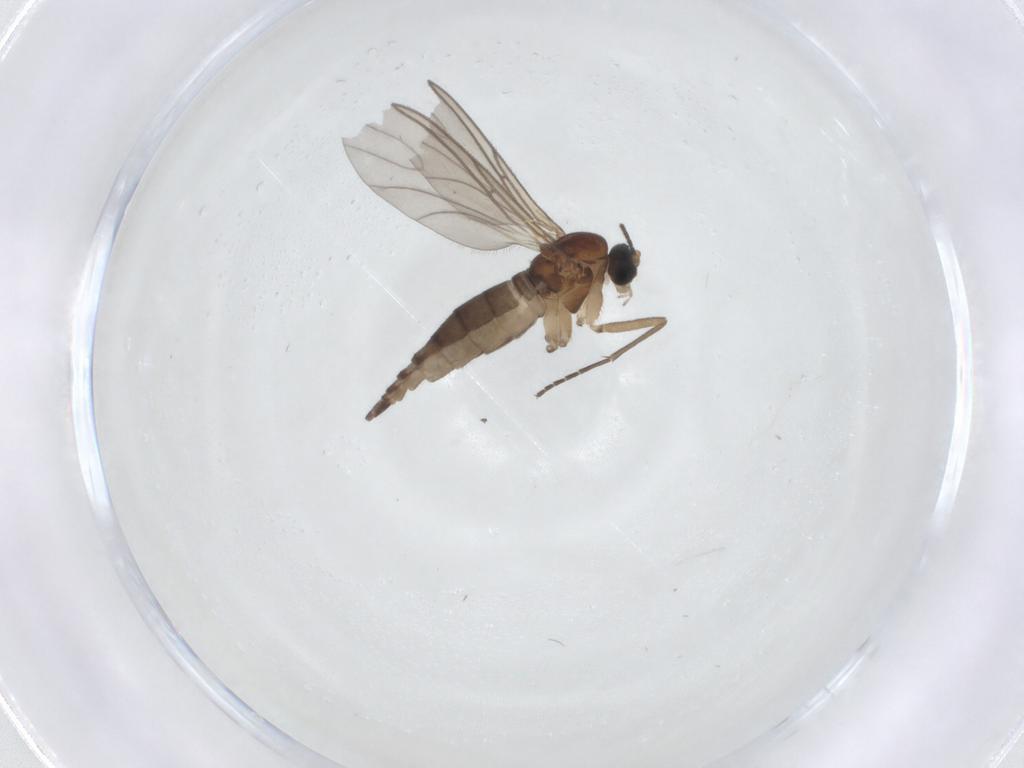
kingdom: Animalia
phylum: Arthropoda
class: Insecta
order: Diptera
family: Sciaridae
